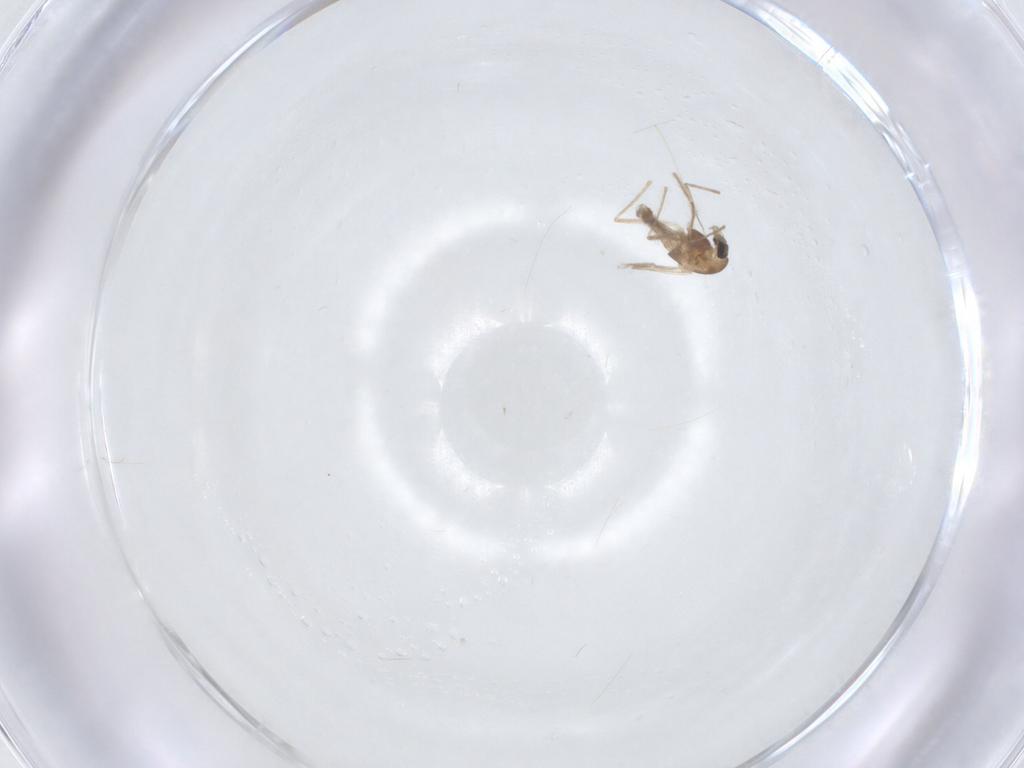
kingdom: Animalia
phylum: Arthropoda
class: Insecta
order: Diptera
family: Chironomidae
